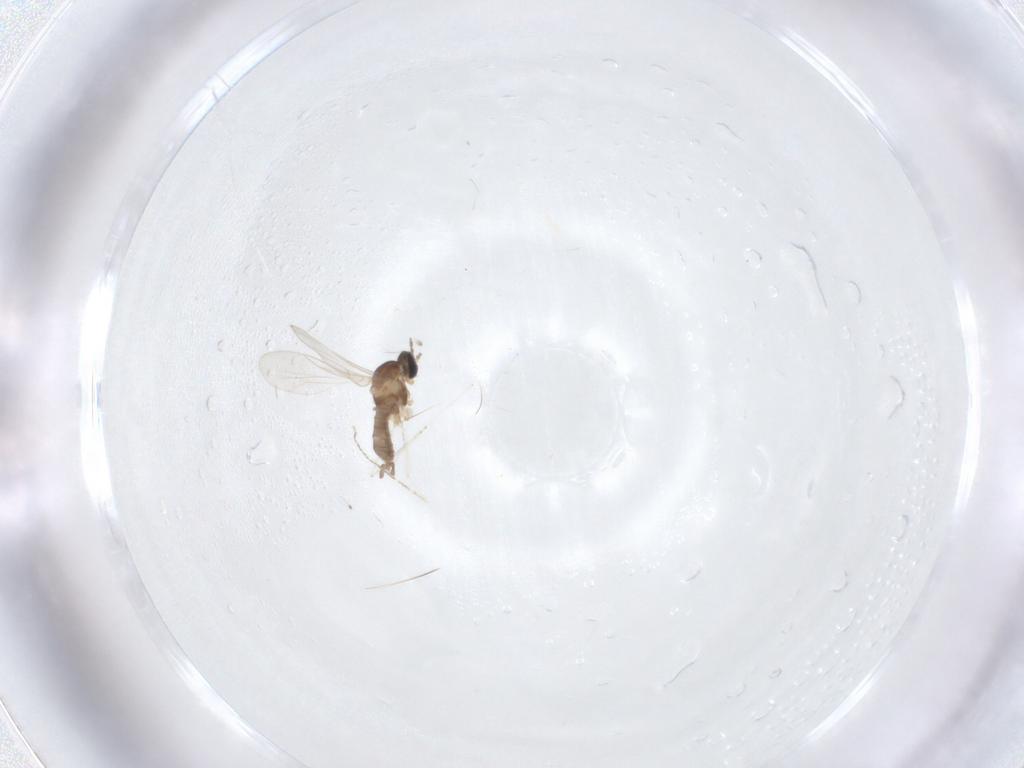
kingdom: Animalia
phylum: Arthropoda
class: Insecta
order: Diptera
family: Cecidomyiidae
